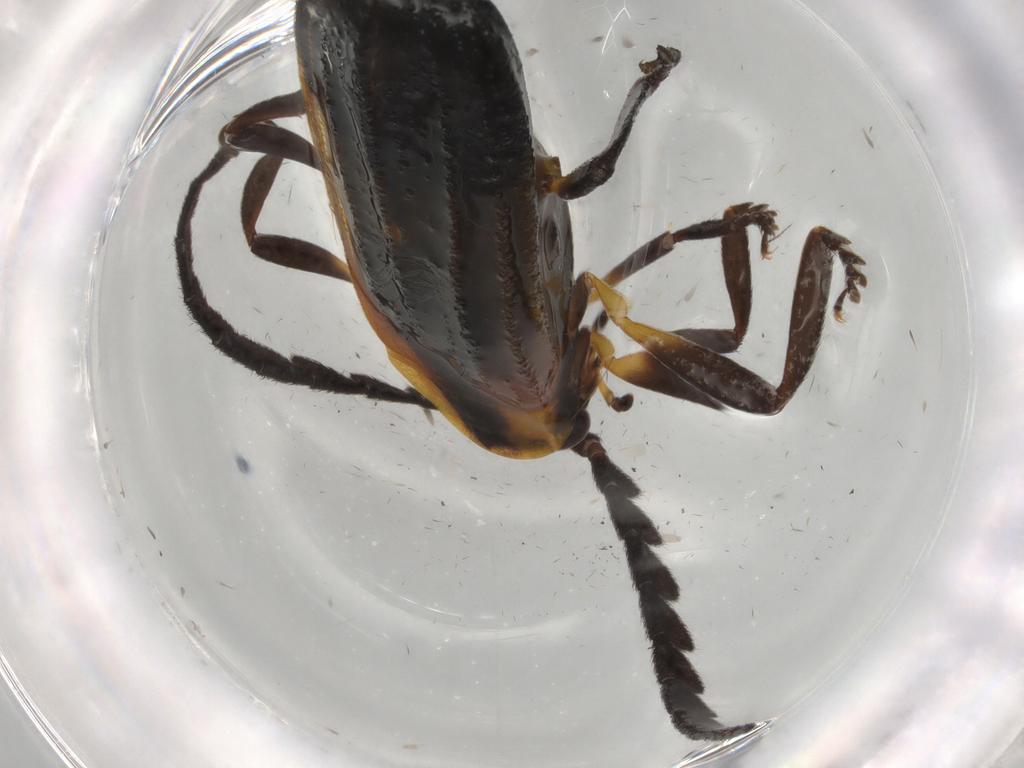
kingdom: Animalia
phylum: Arthropoda
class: Insecta
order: Coleoptera
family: Lycidae
